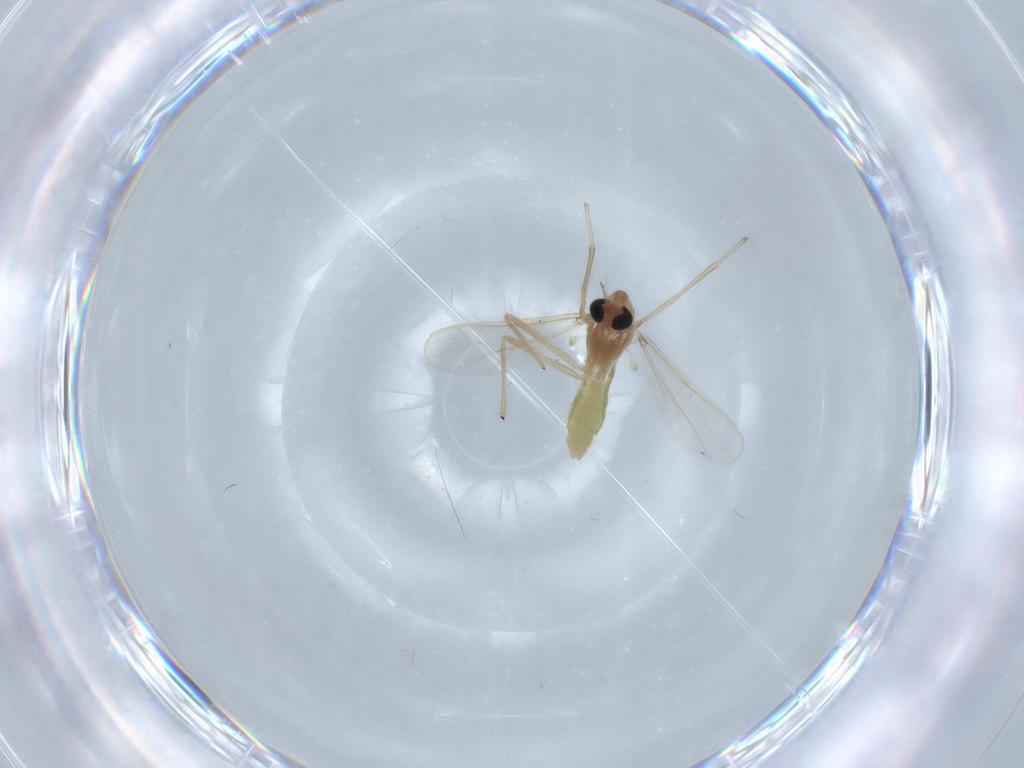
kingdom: Animalia
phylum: Arthropoda
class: Insecta
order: Diptera
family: Chironomidae
